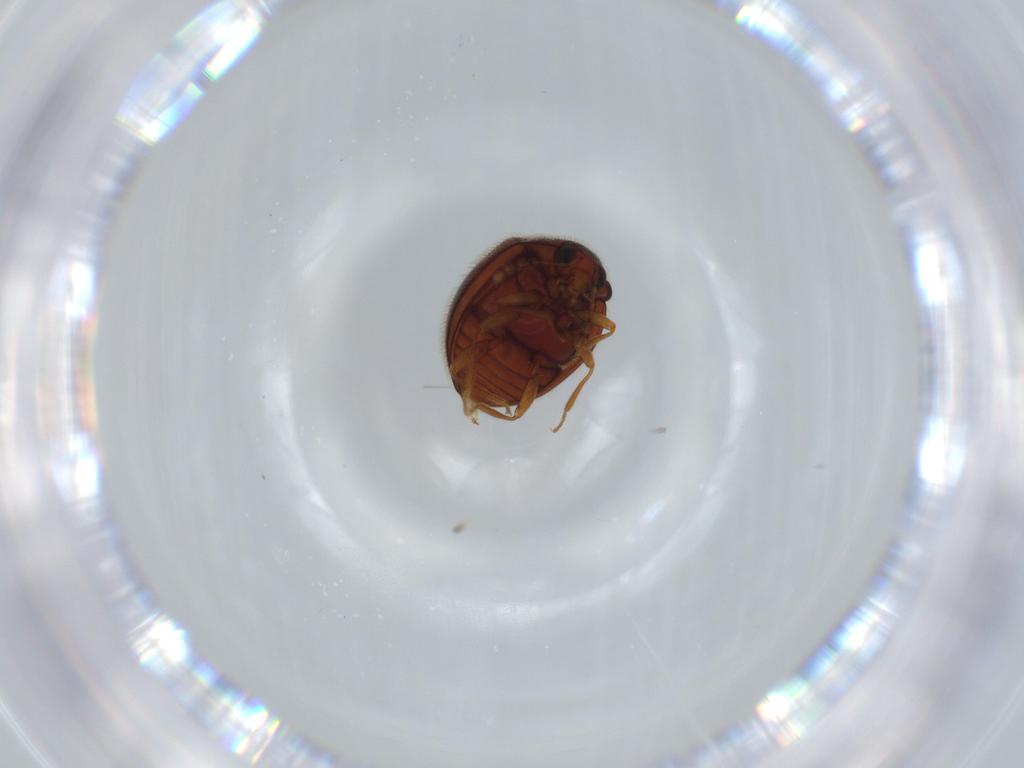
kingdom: Animalia
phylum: Arthropoda
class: Insecta
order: Coleoptera
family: Anamorphidae
